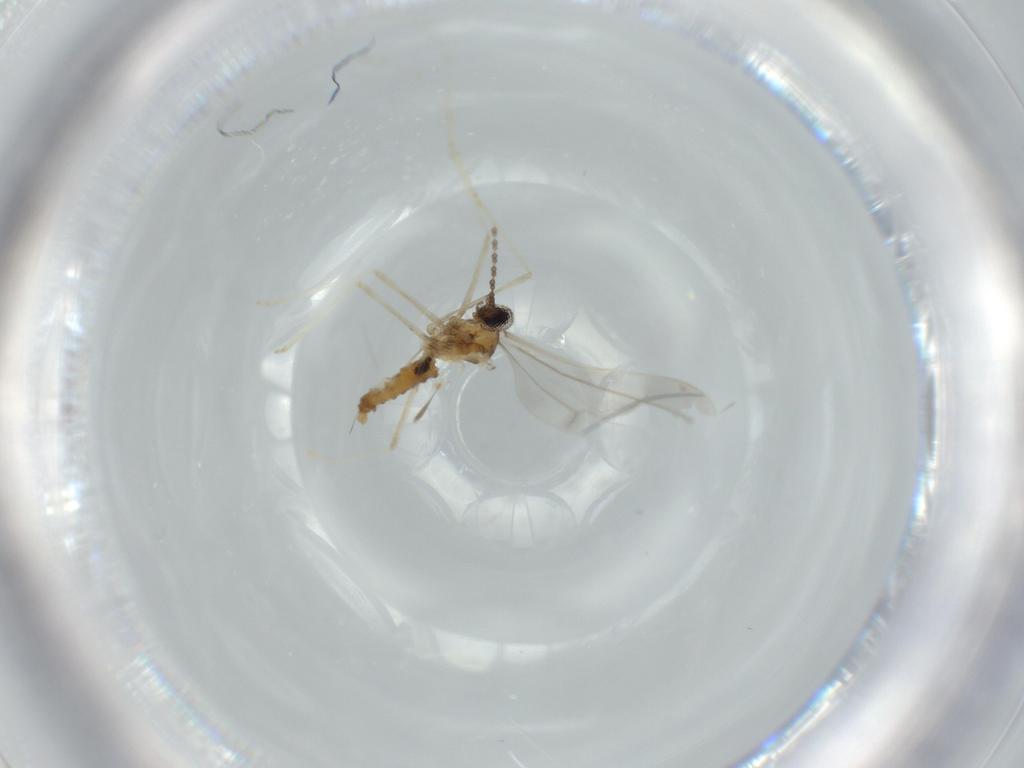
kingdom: Animalia
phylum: Arthropoda
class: Insecta
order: Diptera
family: Cecidomyiidae
